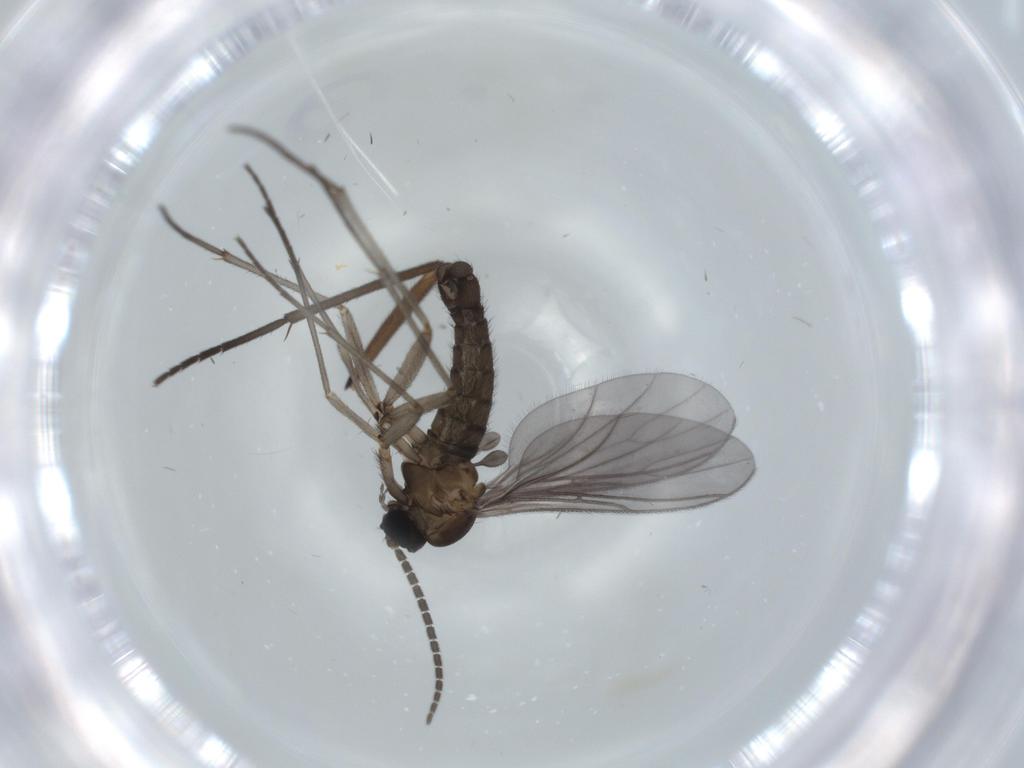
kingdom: Animalia
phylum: Arthropoda
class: Insecta
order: Diptera
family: Sciaridae
